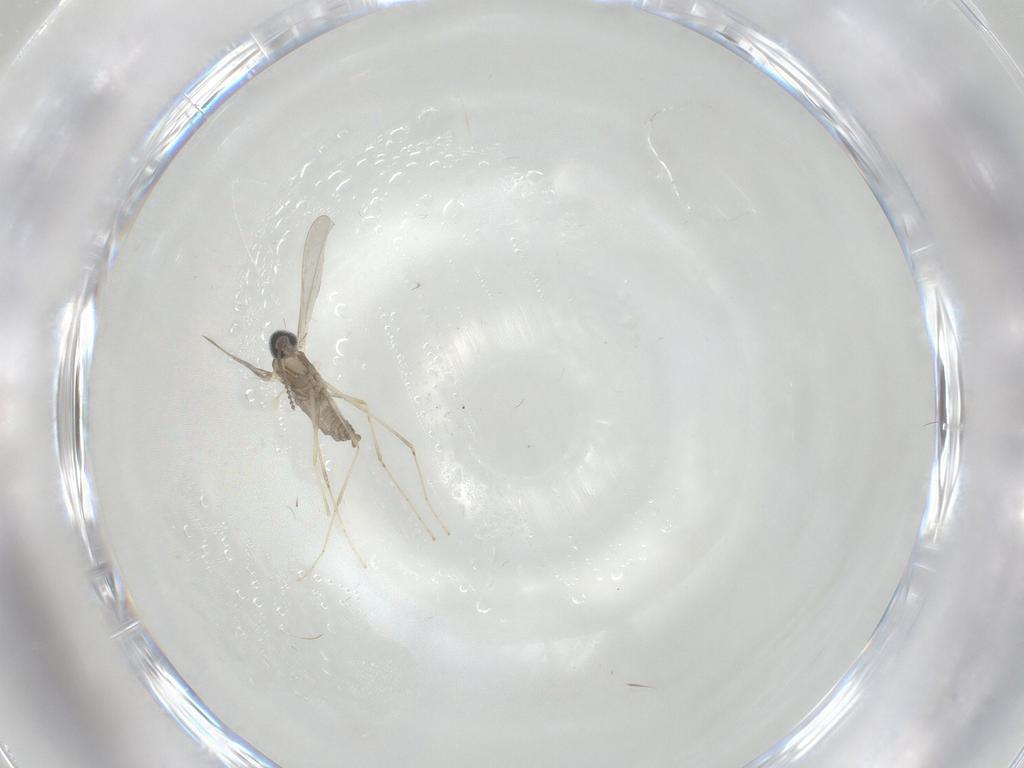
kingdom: Animalia
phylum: Arthropoda
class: Insecta
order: Diptera
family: Cecidomyiidae
